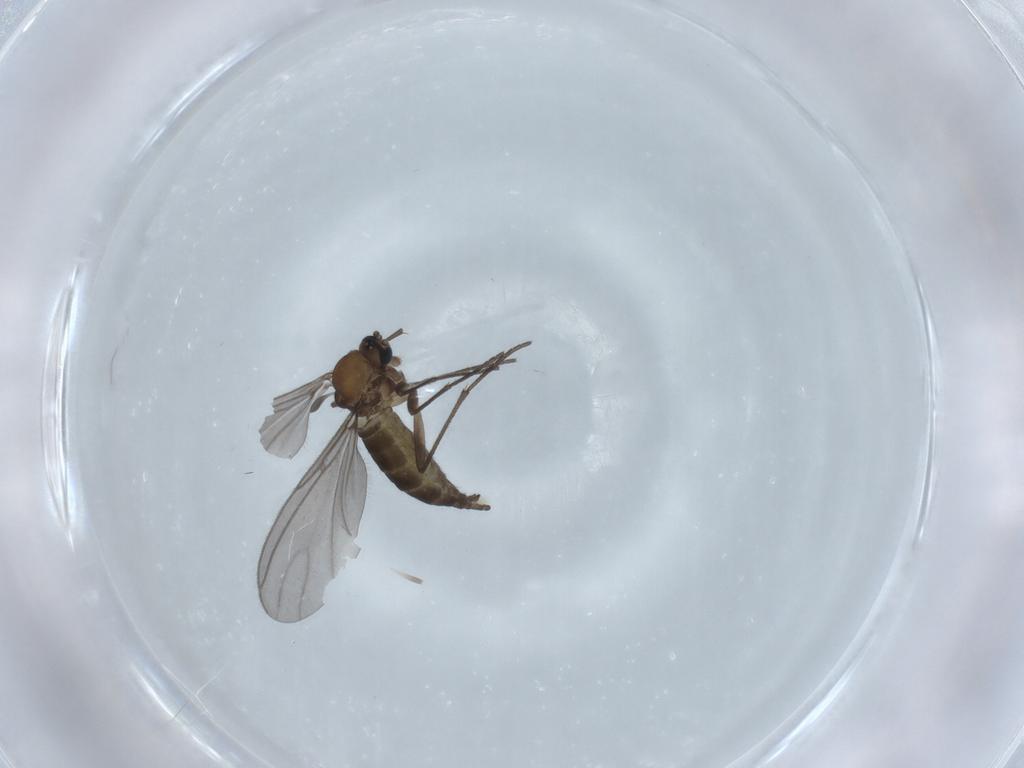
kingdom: Animalia
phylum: Arthropoda
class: Insecta
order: Diptera
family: Sciaridae
